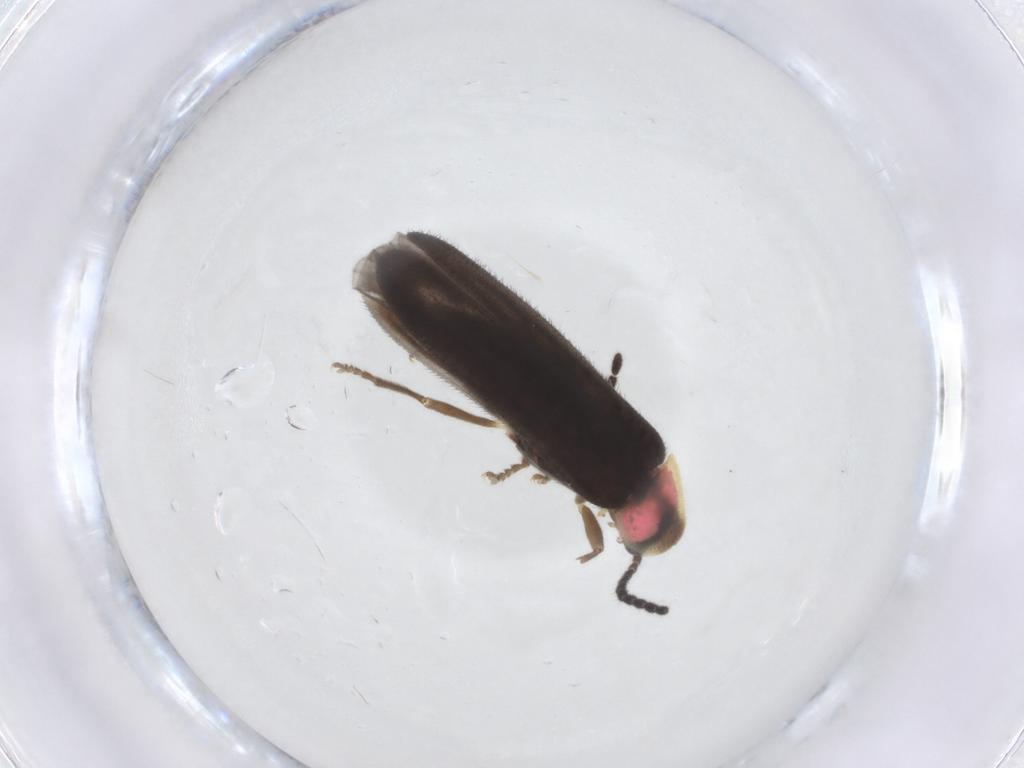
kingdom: Animalia
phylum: Arthropoda
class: Insecta
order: Coleoptera
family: Lampyridae
